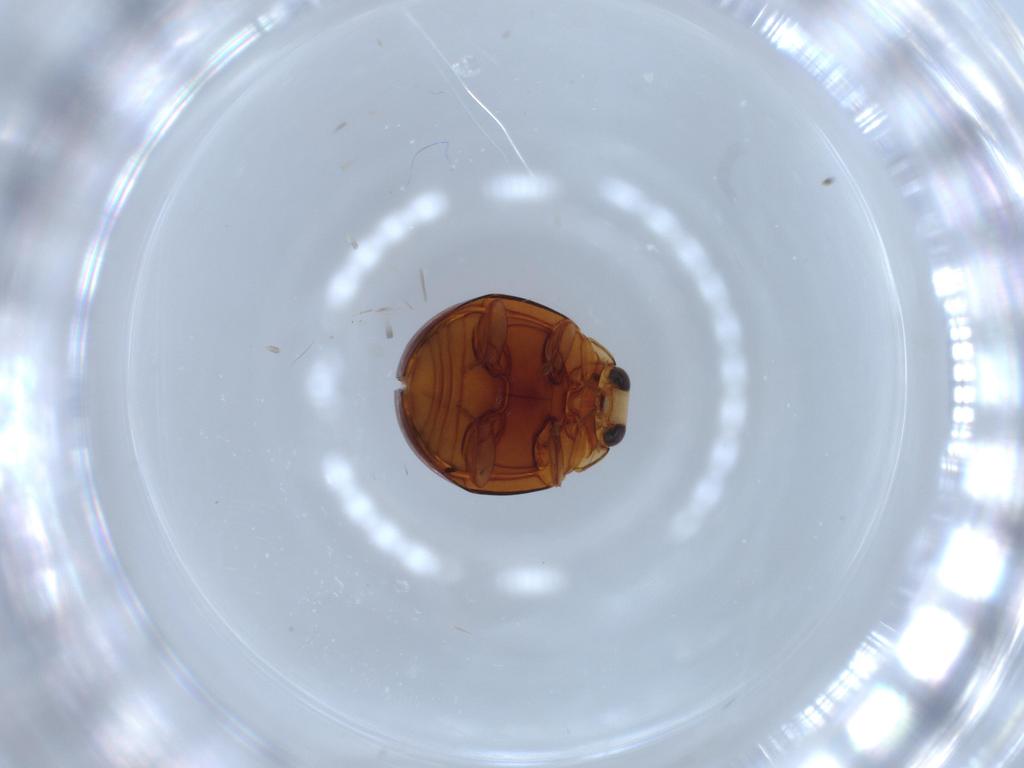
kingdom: Animalia
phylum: Arthropoda
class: Insecta
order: Coleoptera
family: Coccinellidae
